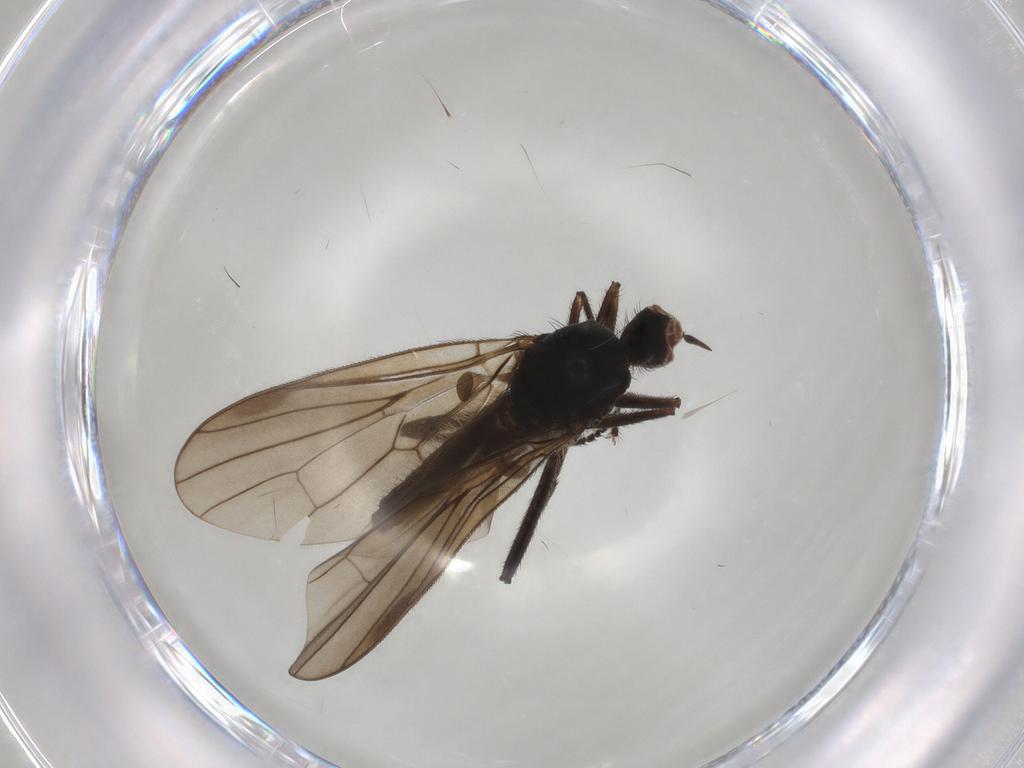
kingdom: Animalia
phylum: Arthropoda
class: Insecta
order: Diptera
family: Hybotidae
